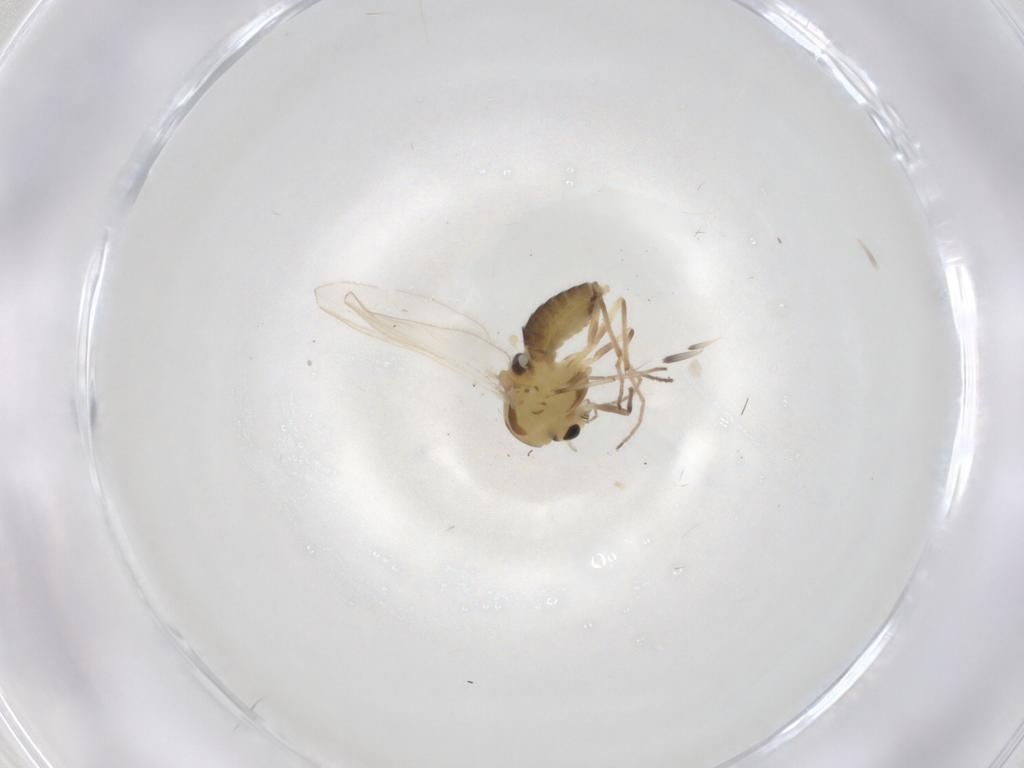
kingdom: Animalia
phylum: Arthropoda
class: Insecta
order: Diptera
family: Chironomidae
